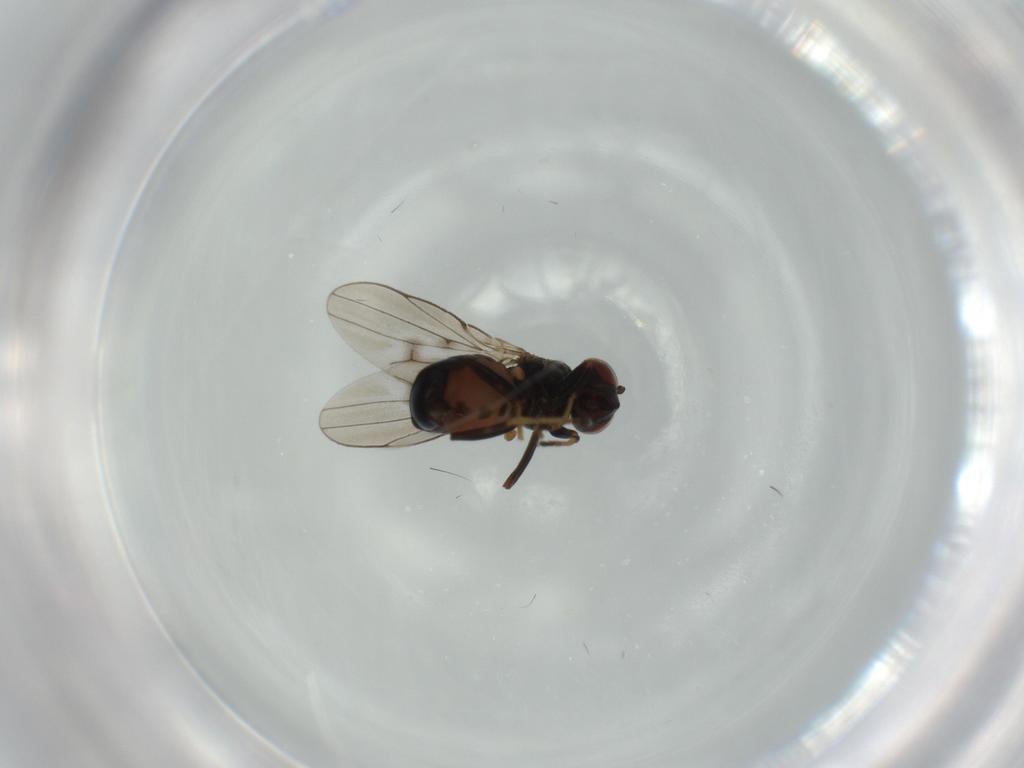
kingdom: Animalia
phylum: Arthropoda
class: Insecta
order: Diptera
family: Ephydridae
